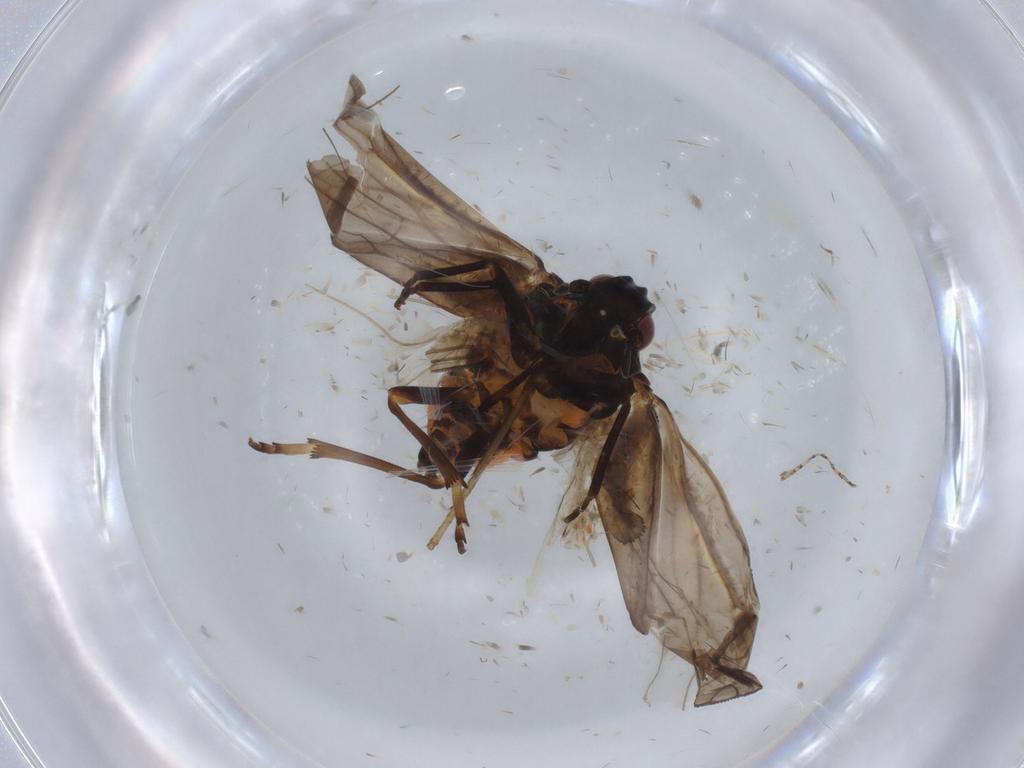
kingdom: Animalia
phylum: Arthropoda
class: Insecta
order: Hemiptera
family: Meenoplidae
